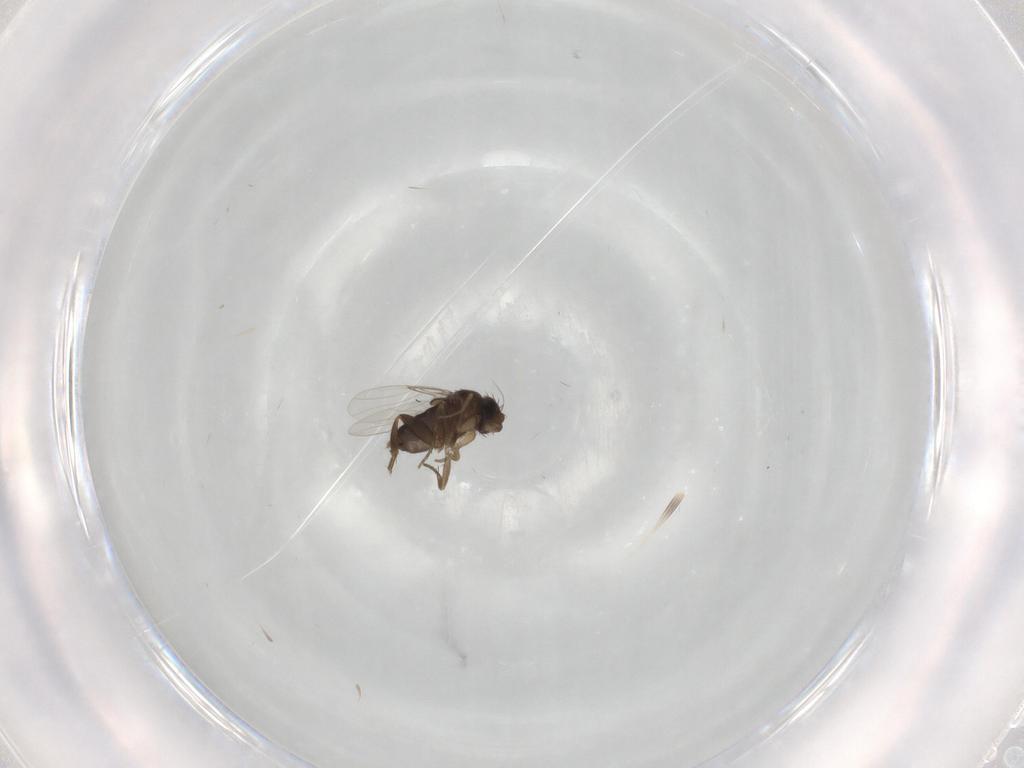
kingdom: Animalia
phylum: Arthropoda
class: Insecta
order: Diptera
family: Phoridae
